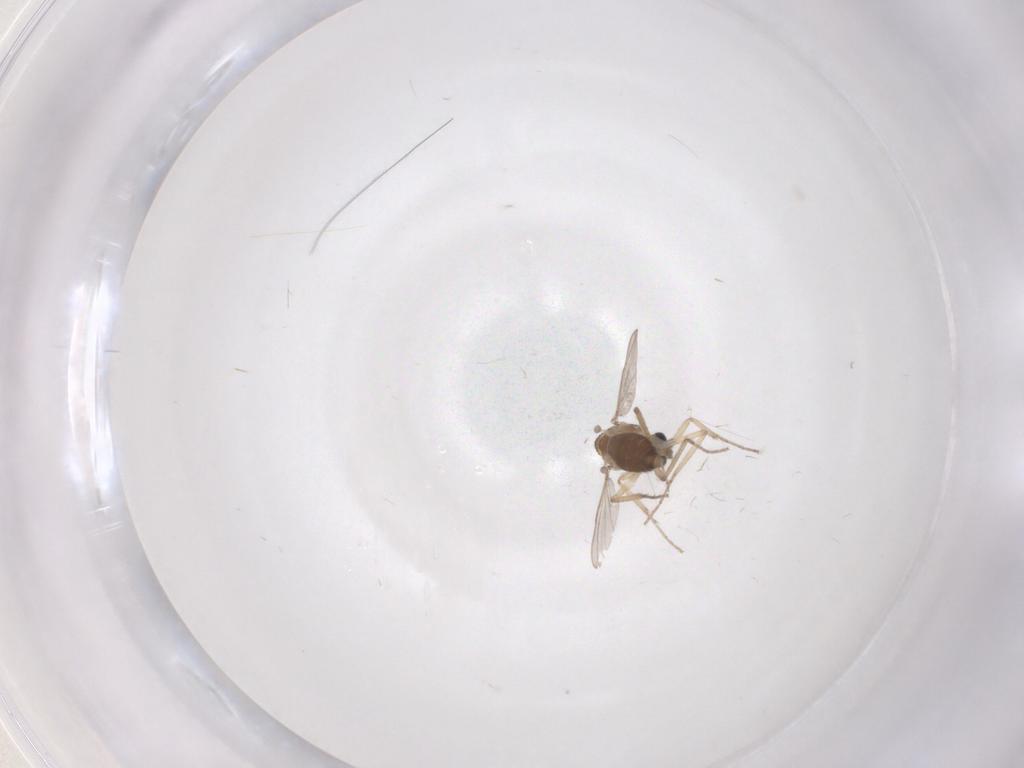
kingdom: Animalia
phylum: Arthropoda
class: Insecta
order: Diptera
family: Ceratopogonidae
